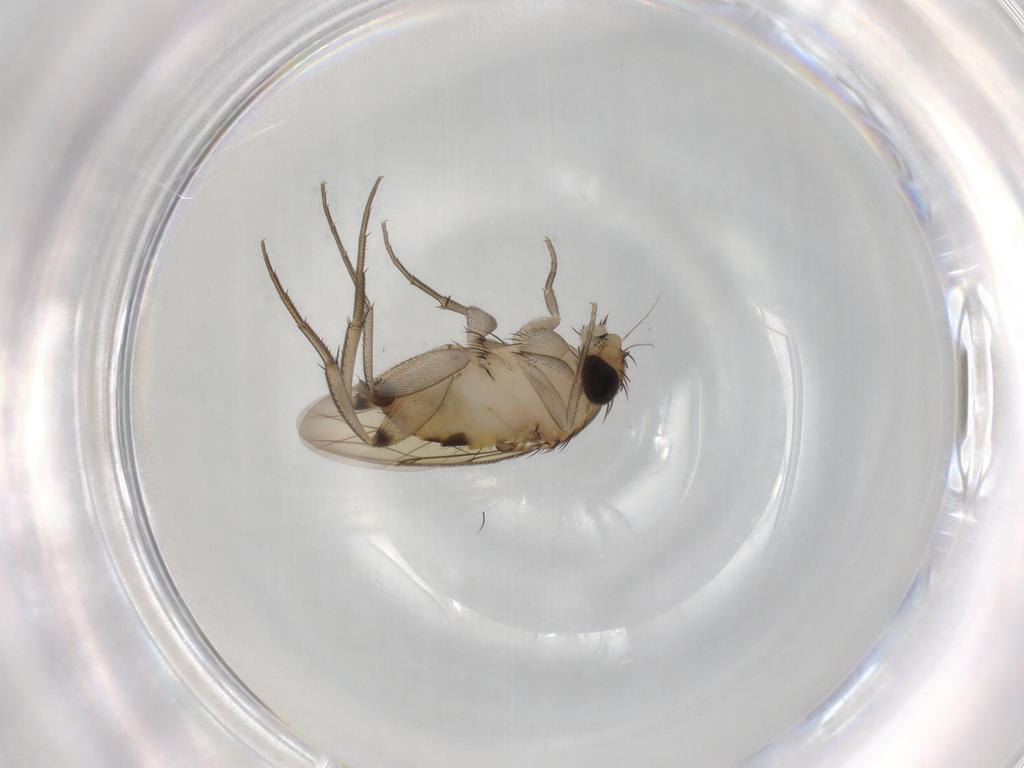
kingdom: Animalia
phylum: Arthropoda
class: Insecta
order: Diptera
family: Phoridae
